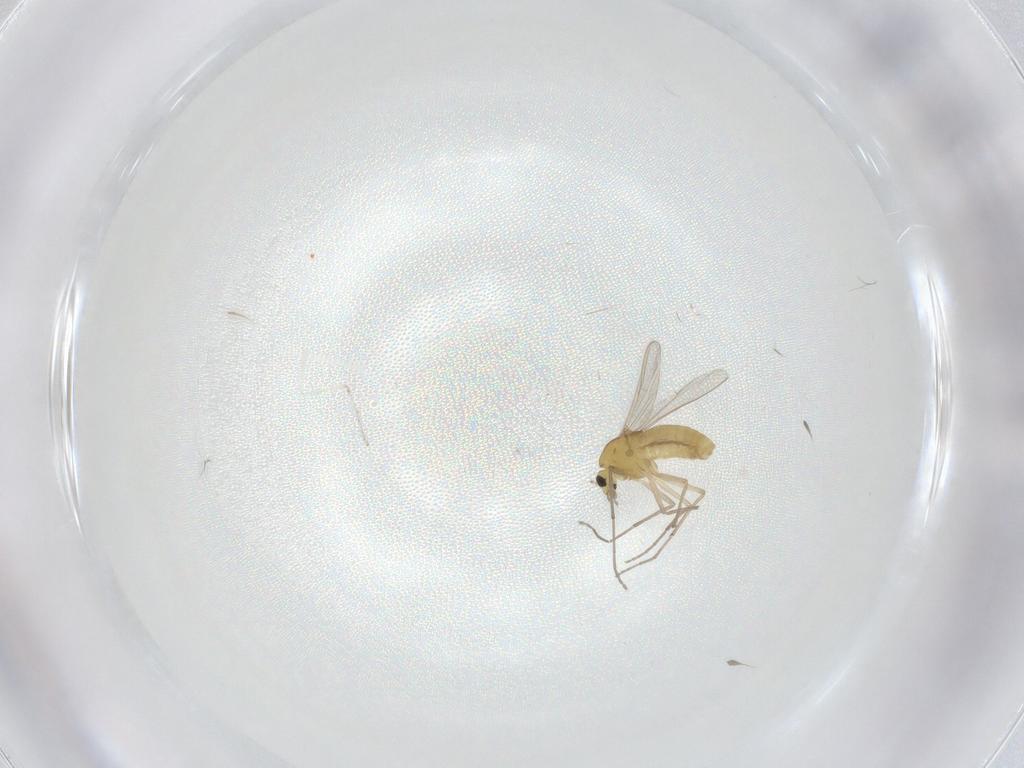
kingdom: Animalia
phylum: Arthropoda
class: Insecta
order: Diptera
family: Chironomidae
